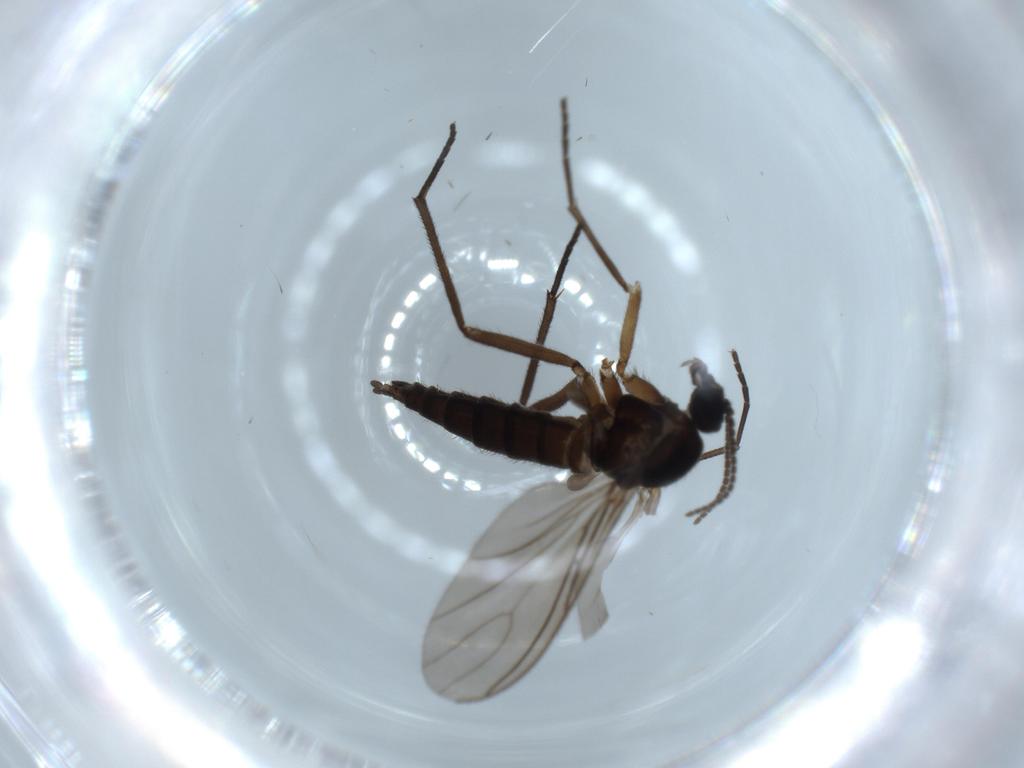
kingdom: Animalia
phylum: Arthropoda
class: Insecta
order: Diptera
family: Sciaridae
